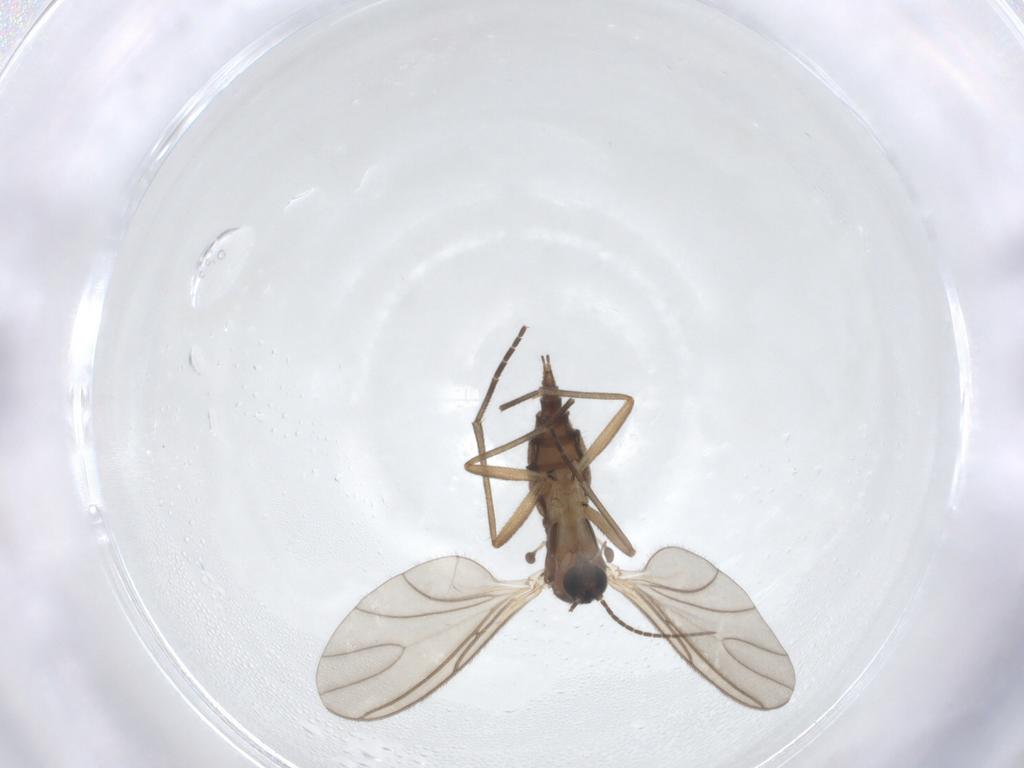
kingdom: Animalia
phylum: Arthropoda
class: Insecta
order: Diptera
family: Sciaridae
